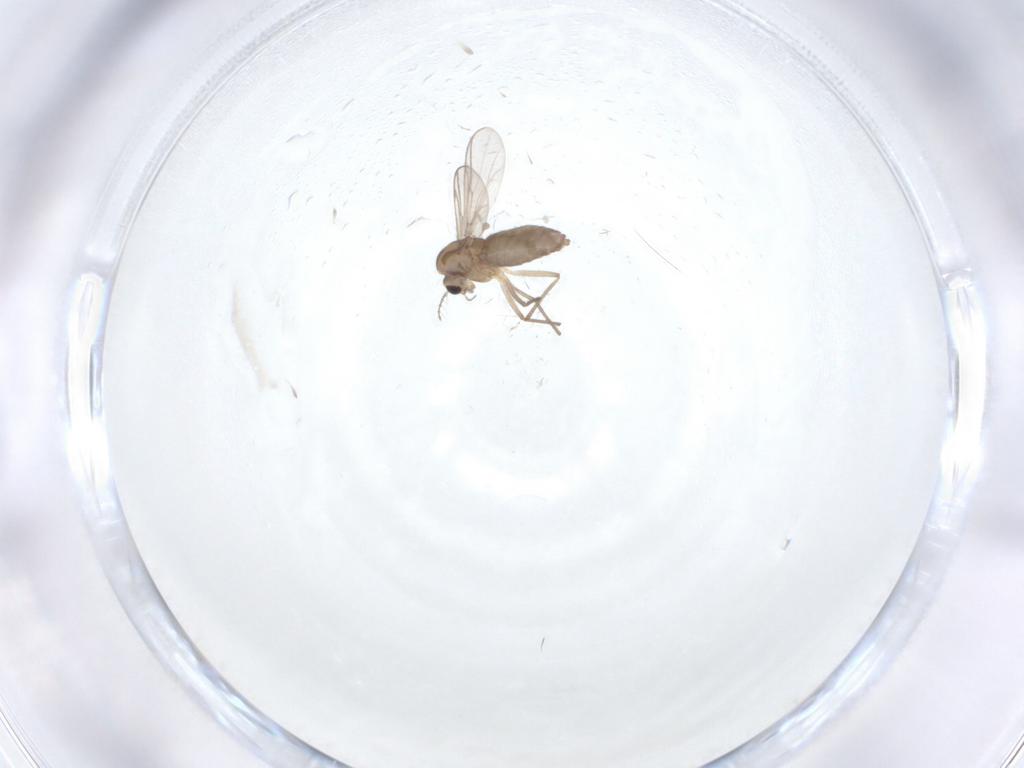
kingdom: Animalia
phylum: Arthropoda
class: Insecta
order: Diptera
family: Chironomidae
